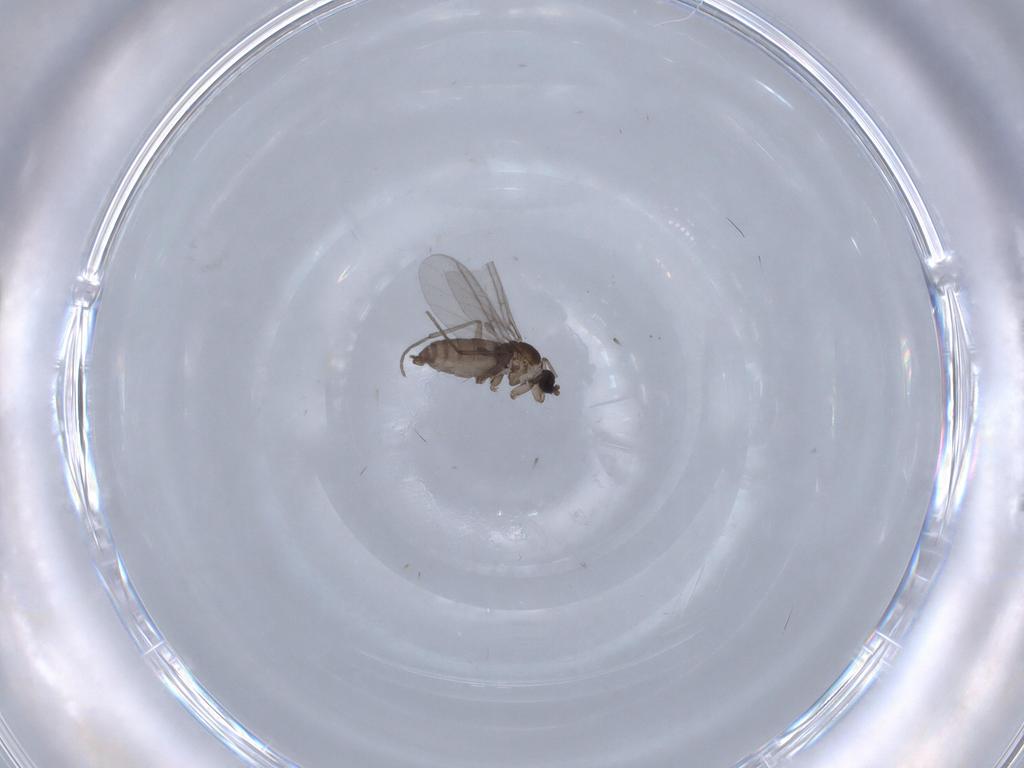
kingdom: Animalia
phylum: Arthropoda
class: Insecta
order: Diptera
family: Sciaridae
